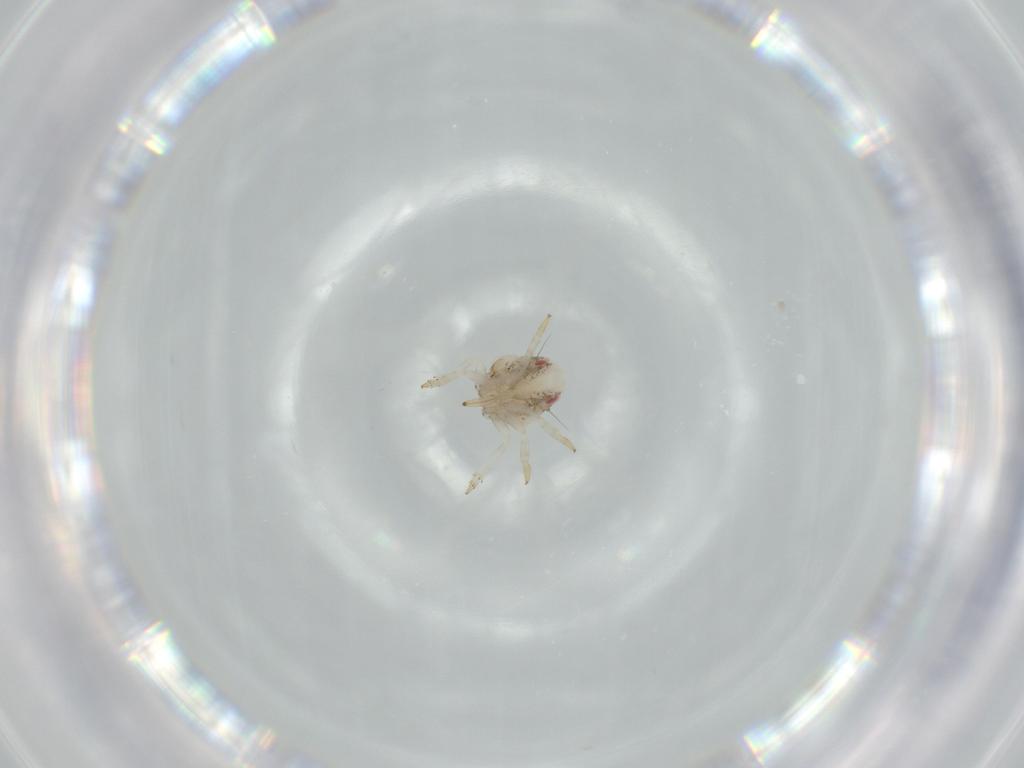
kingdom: Animalia
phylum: Arthropoda
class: Insecta
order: Hemiptera
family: Acanaloniidae
